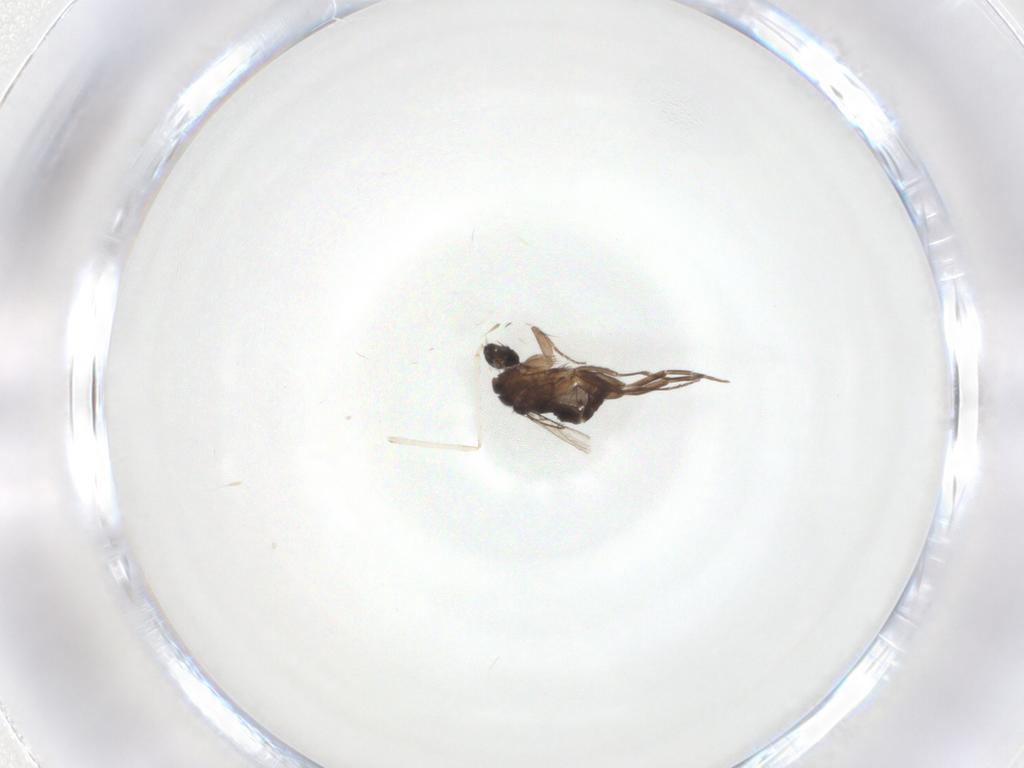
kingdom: Animalia
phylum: Arthropoda
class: Insecta
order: Diptera
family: Phoridae
